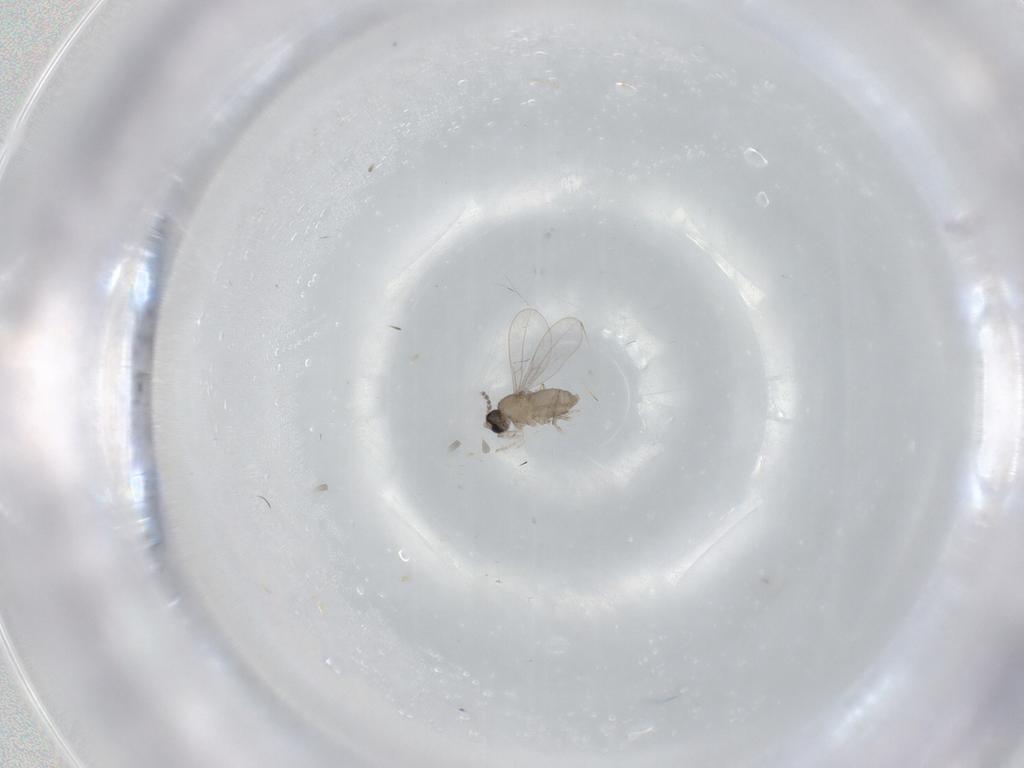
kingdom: Animalia
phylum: Arthropoda
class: Insecta
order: Diptera
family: Cecidomyiidae
